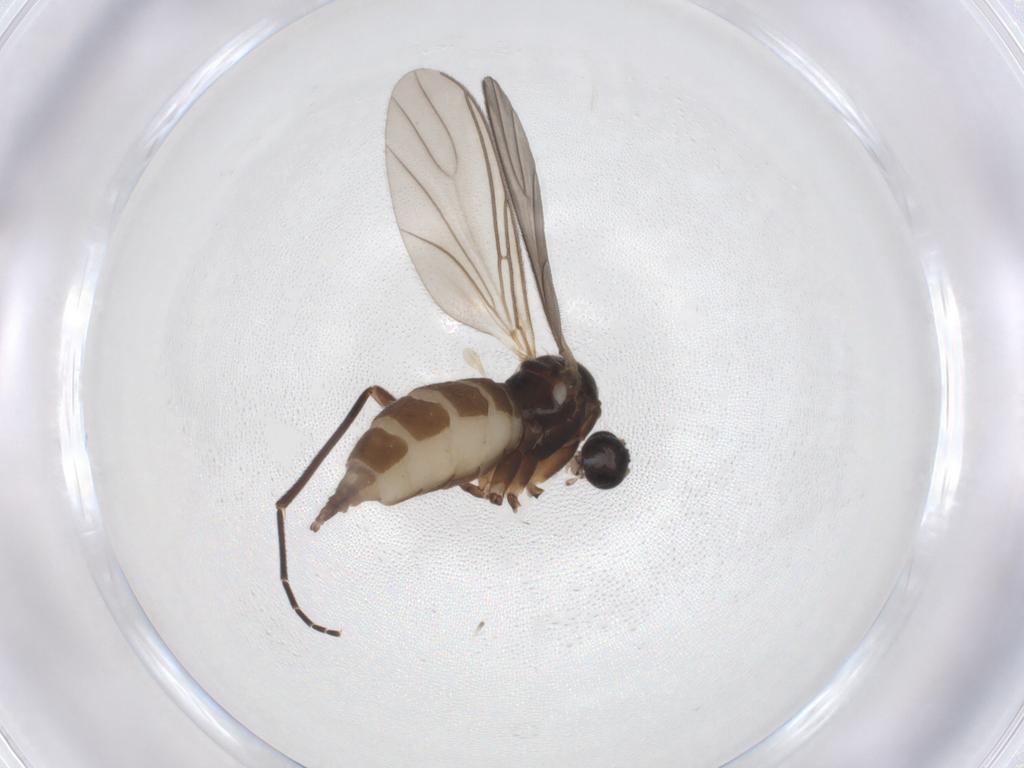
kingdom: Animalia
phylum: Arthropoda
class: Insecta
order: Diptera
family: Sciaridae
